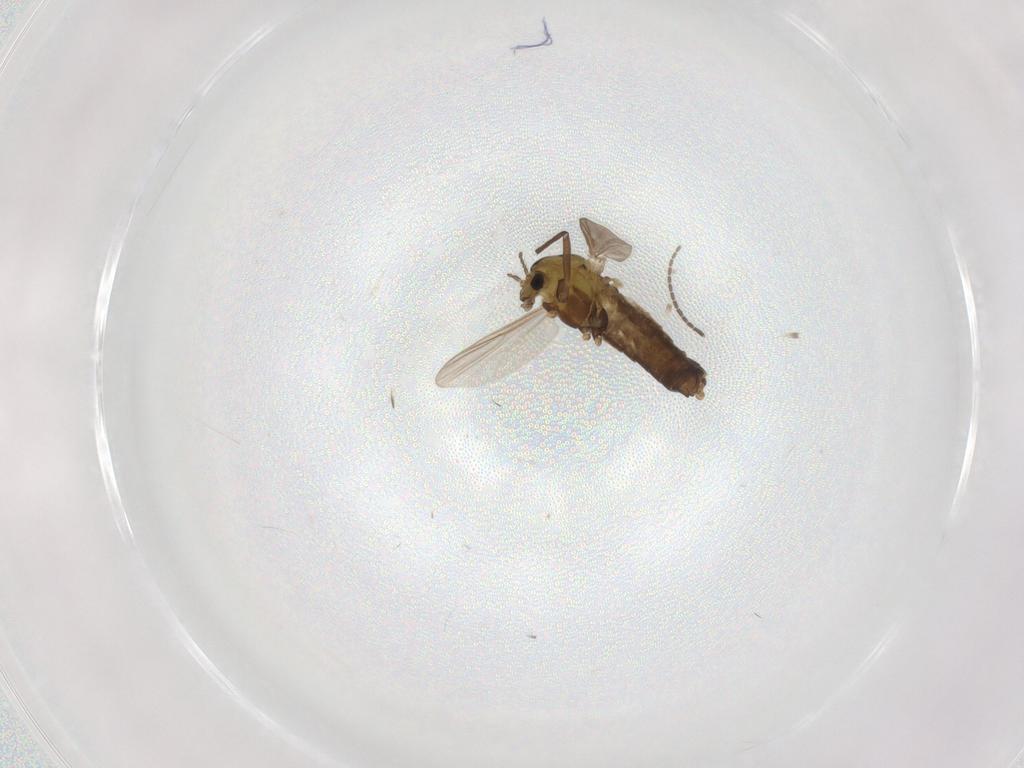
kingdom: Animalia
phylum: Arthropoda
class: Insecta
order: Diptera
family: Chironomidae
